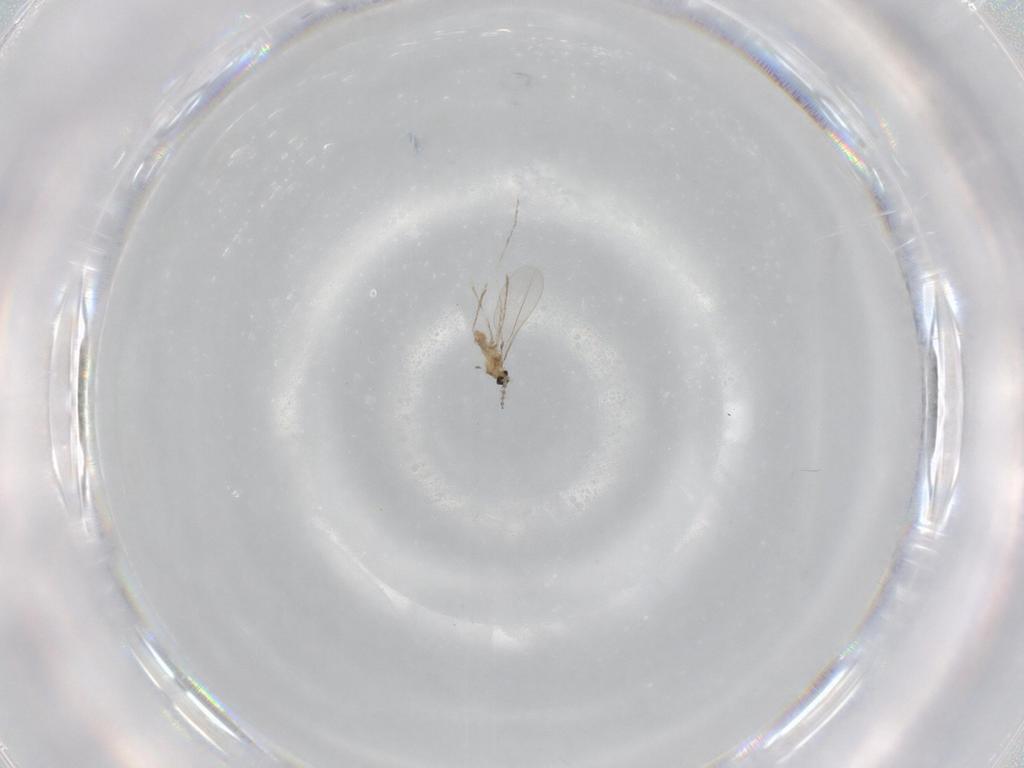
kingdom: Animalia
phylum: Arthropoda
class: Insecta
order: Diptera
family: Cecidomyiidae
